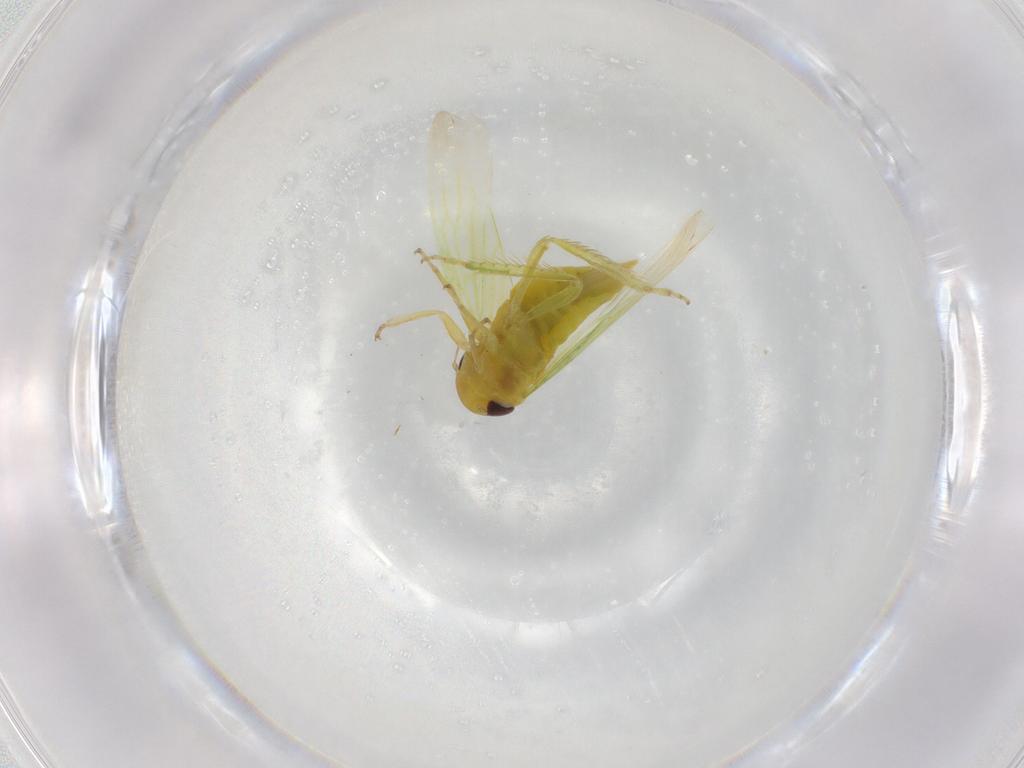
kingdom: Animalia
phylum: Arthropoda
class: Insecta
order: Hemiptera
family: Cicadellidae
